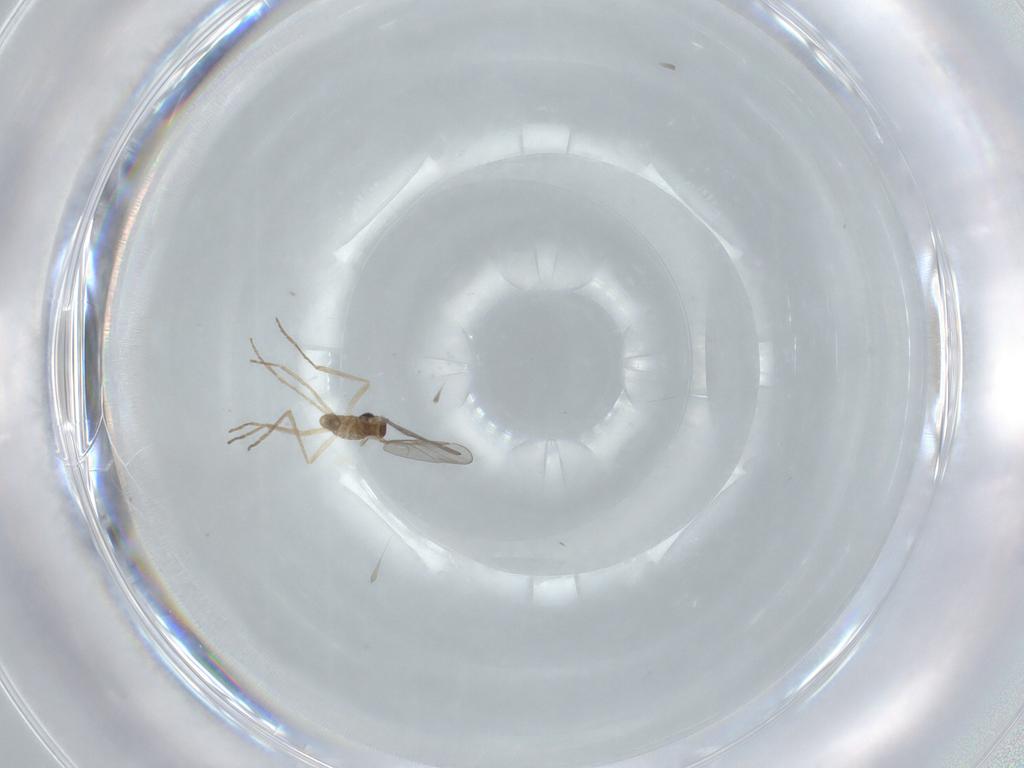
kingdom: Animalia
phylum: Arthropoda
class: Insecta
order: Diptera
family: Cecidomyiidae
